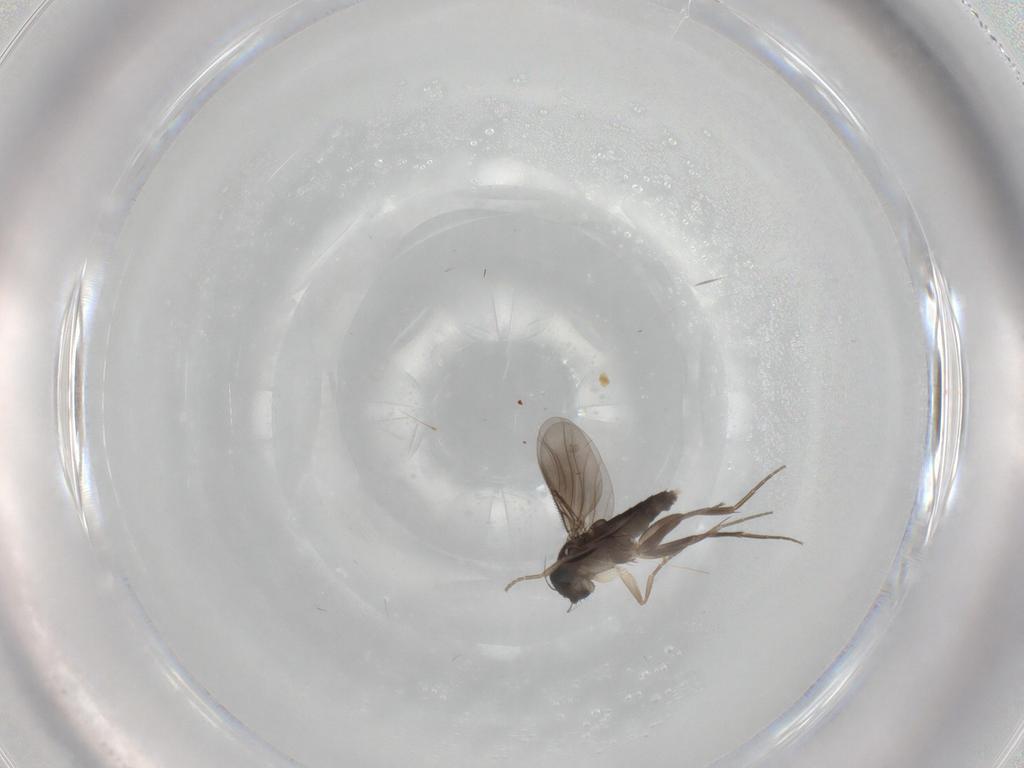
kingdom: Animalia
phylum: Arthropoda
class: Insecta
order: Diptera
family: Phoridae
